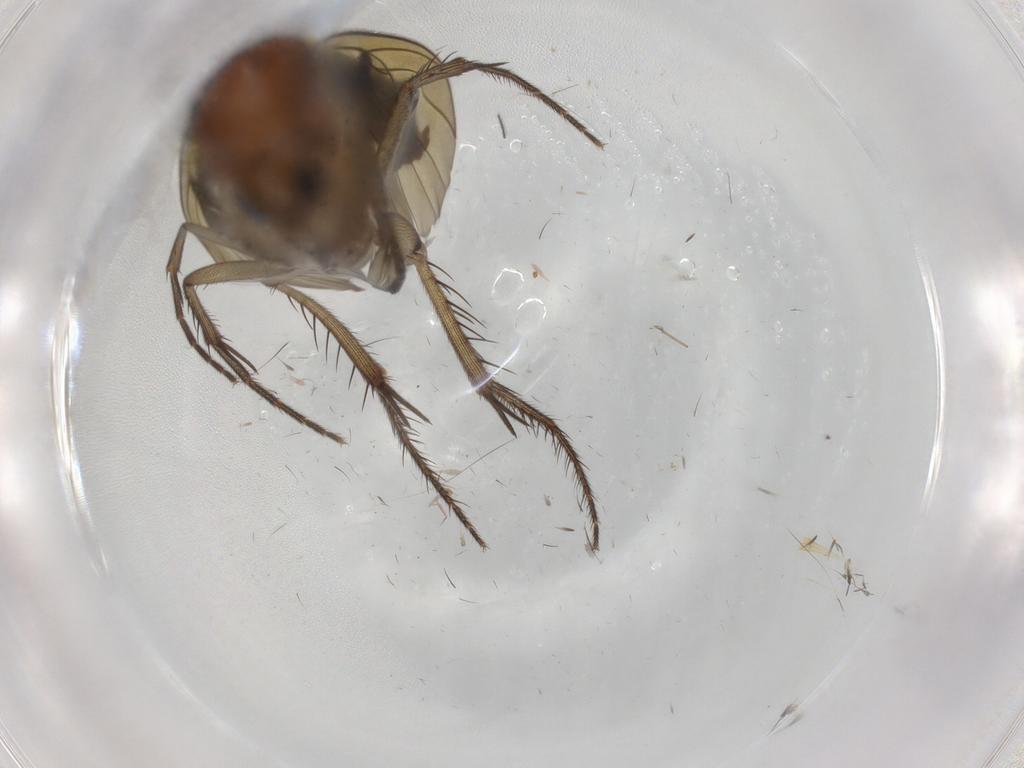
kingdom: Animalia
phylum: Arthropoda
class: Insecta
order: Diptera
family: Mycetophilidae
